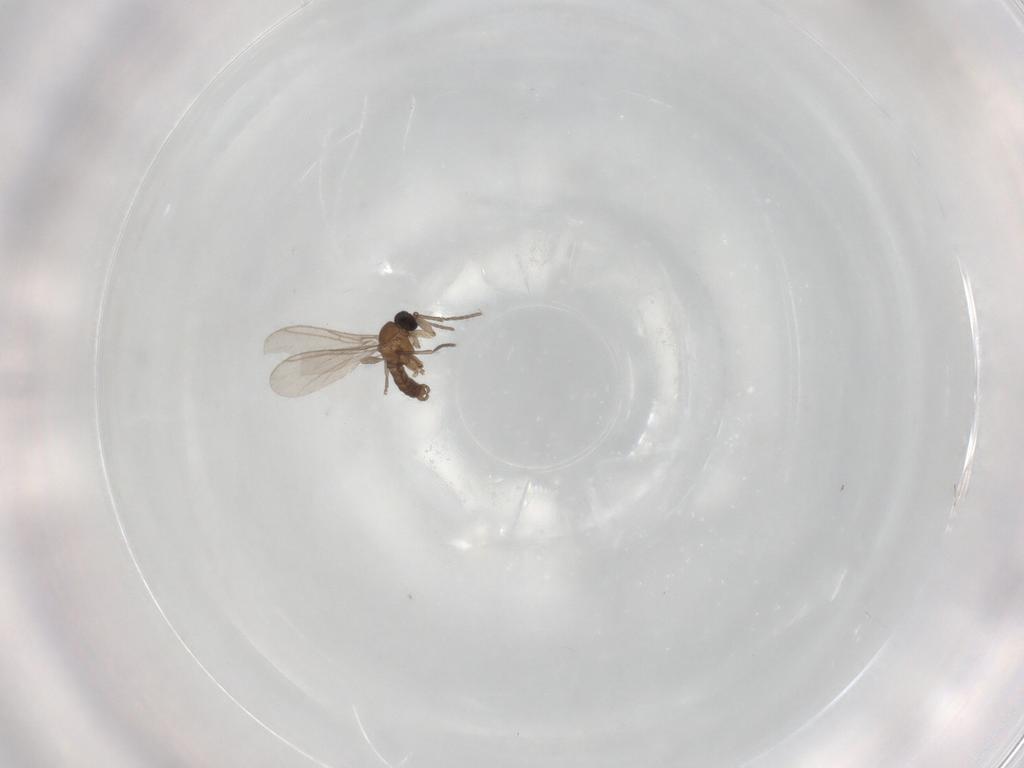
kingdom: Animalia
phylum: Arthropoda
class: Insecta
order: Diptera
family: Ceratopogonidae
